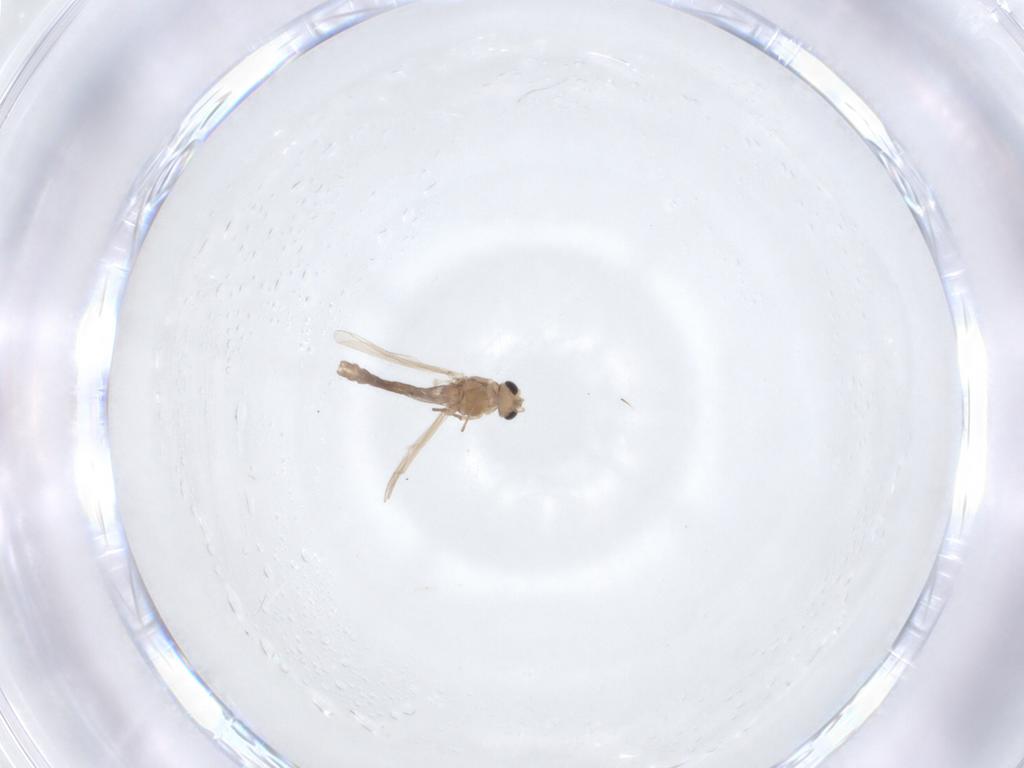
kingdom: Animalia
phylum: Arthropoda
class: Insecta
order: Diptera
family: Chironomidae
